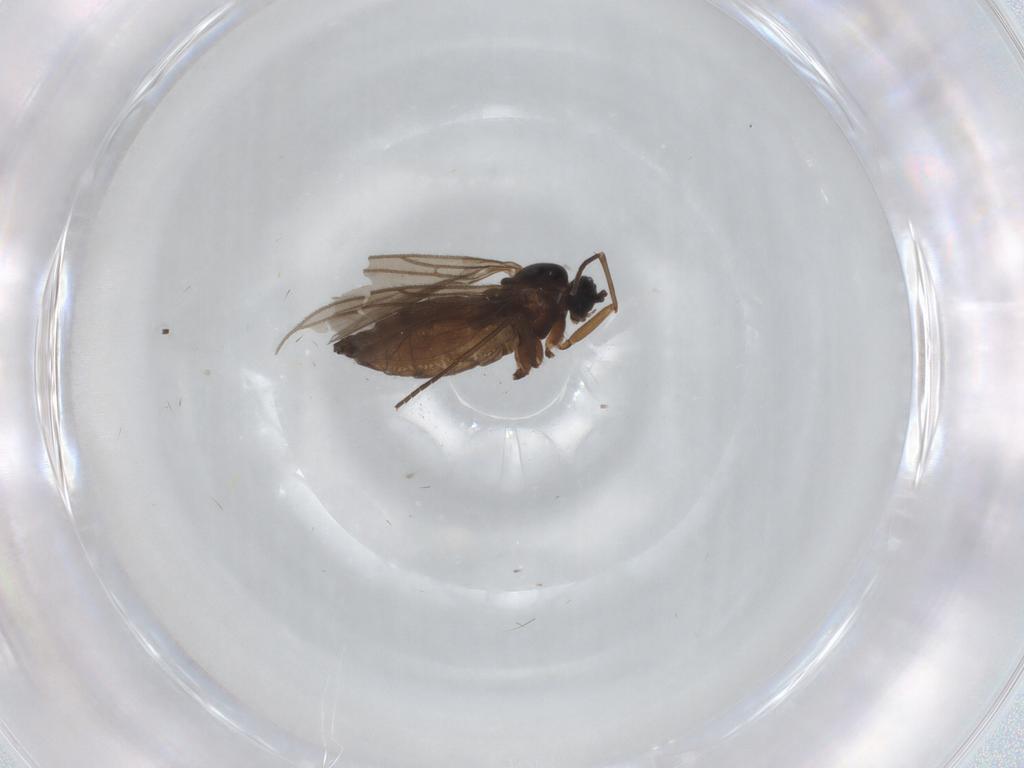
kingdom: Animalia
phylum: Arthropoda
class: Insecta
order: Diptera
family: Sciaridae
